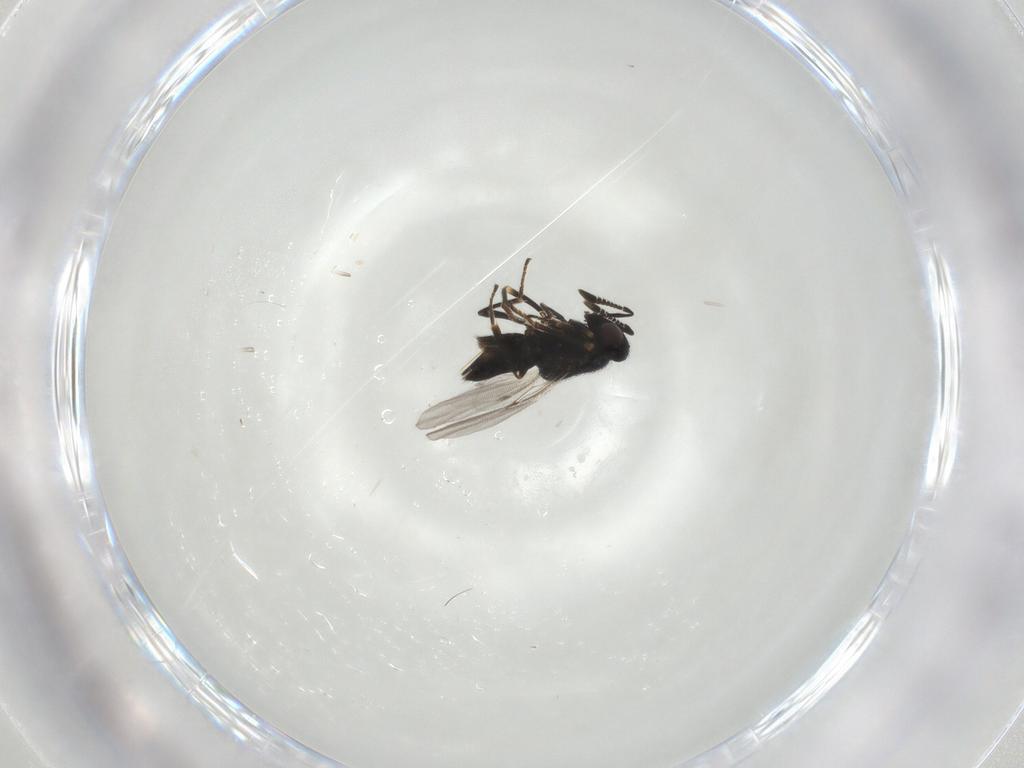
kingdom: Animalia
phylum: Arthropoda
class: Insecta
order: Hymenoptera
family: Encyrtidae
